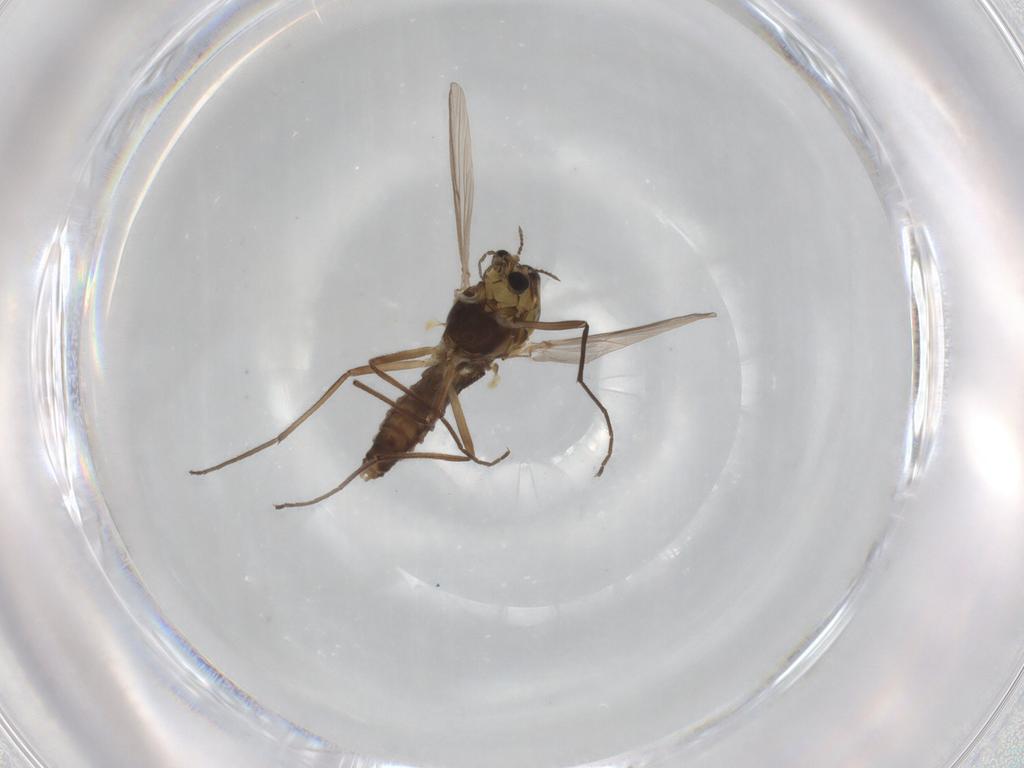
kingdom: Animalia
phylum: Arthropoda
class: Insecta
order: Diptera
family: Chironomidae
